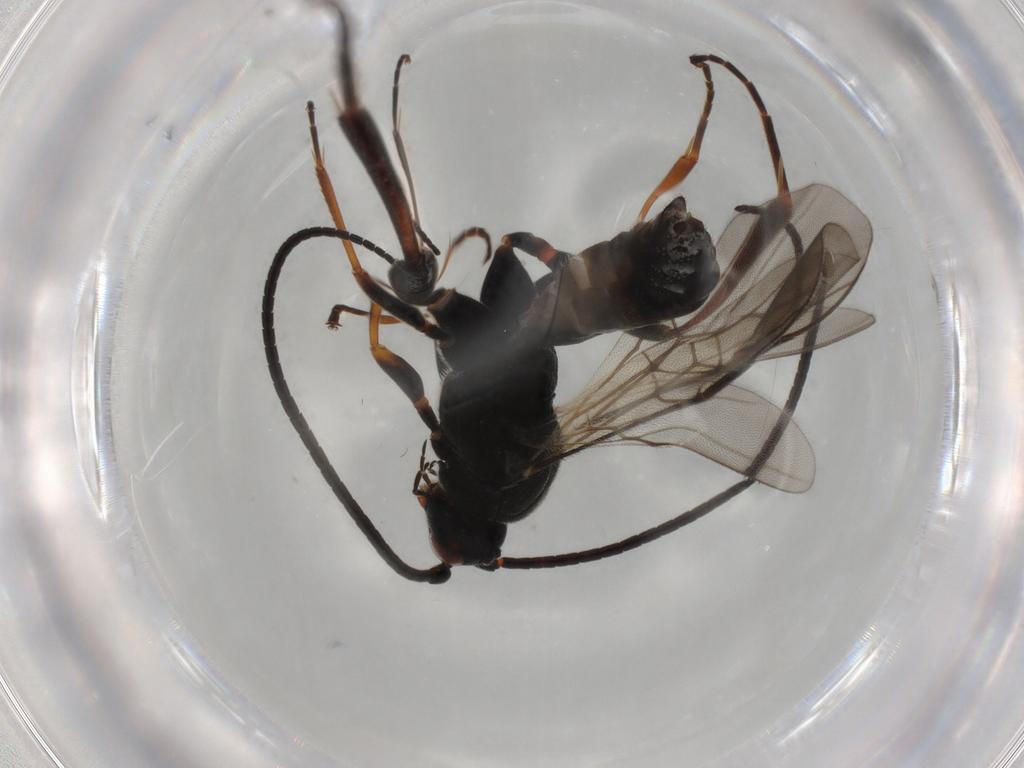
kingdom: Animalia
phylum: Arthropoda
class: Insecta
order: Hymenoptera
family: Braconidae
